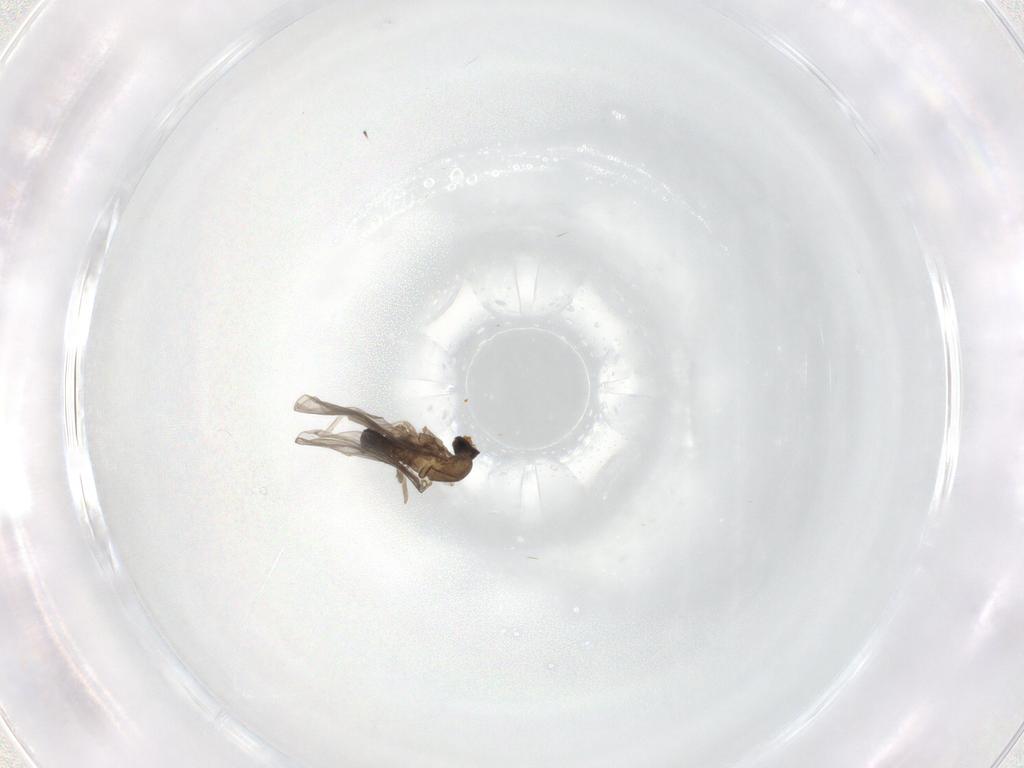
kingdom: Animalia
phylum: Arthropoda
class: Insecta
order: Diptera
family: Cecidomyiidae
